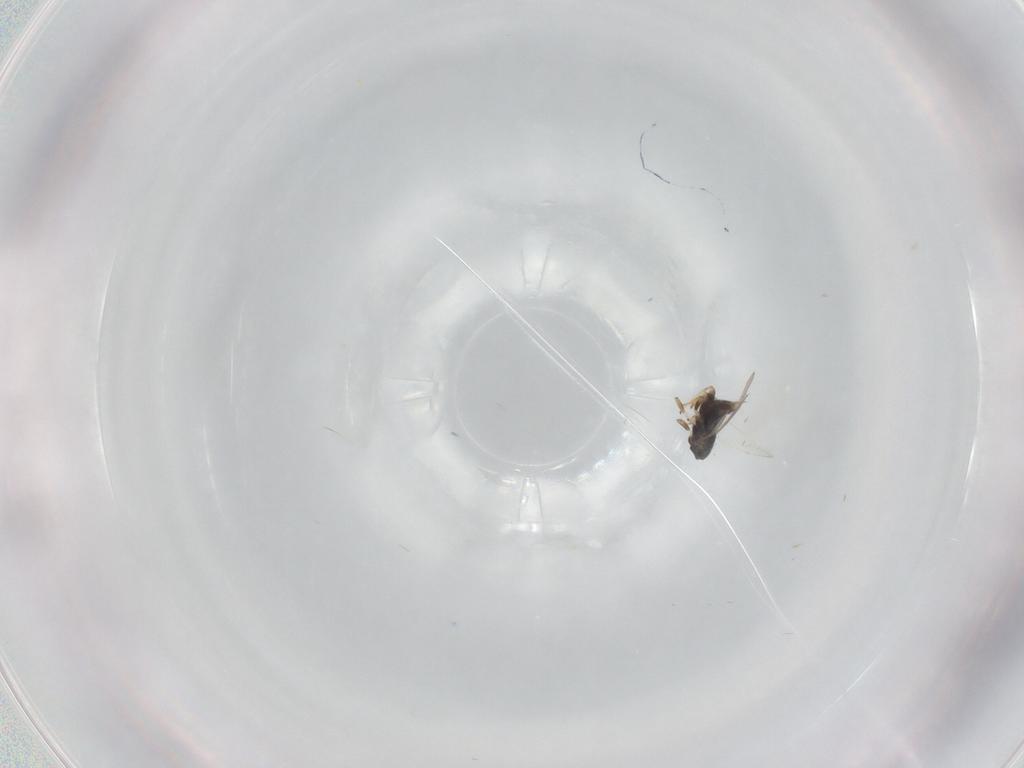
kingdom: Animalia
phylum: Arthropoda
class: Insecta
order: Hymenoptera
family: Aphelinidae
